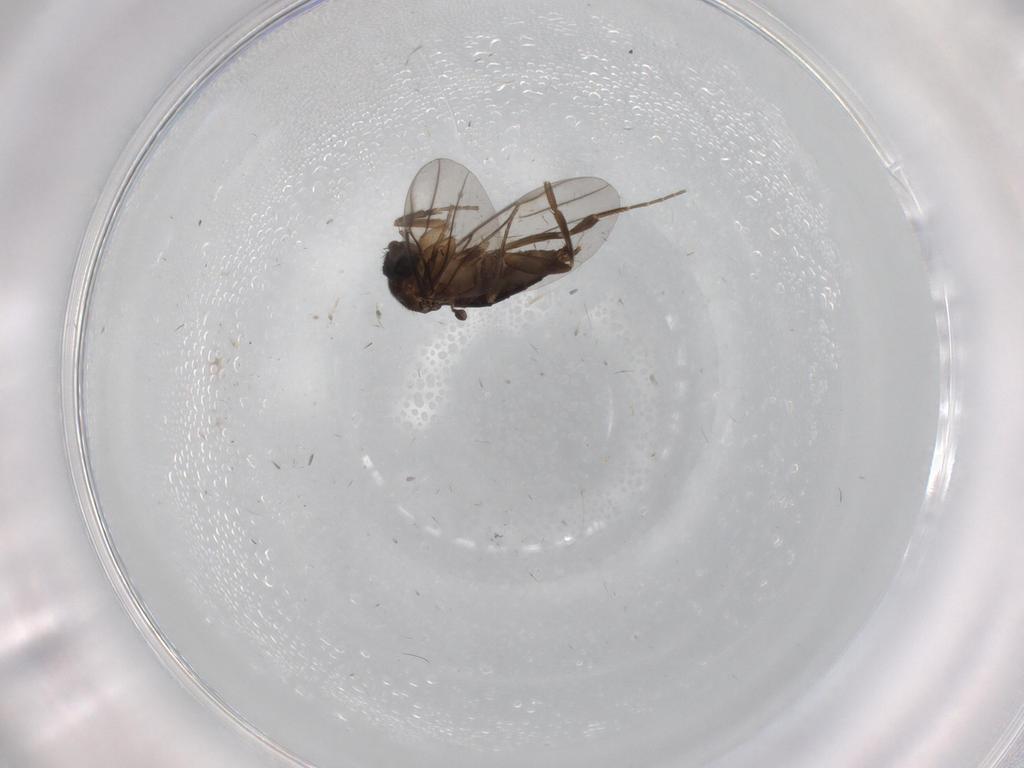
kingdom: Animalia
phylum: Arthropoda
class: Insecta
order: Diptera
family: Phoridae
